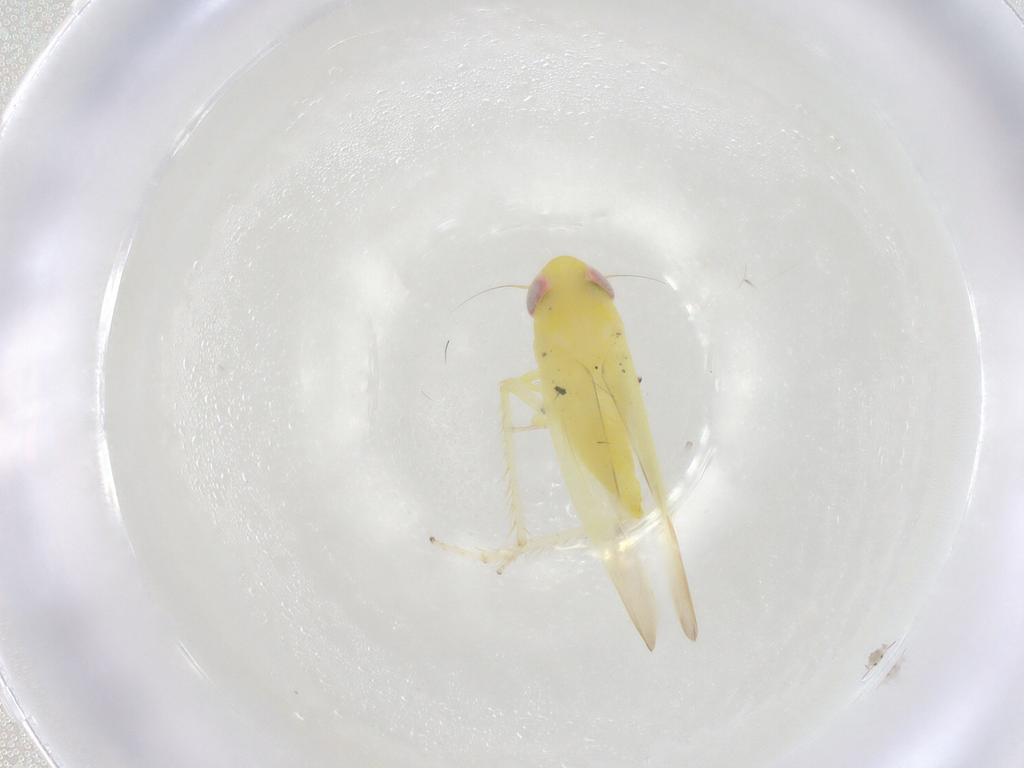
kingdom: Animalia
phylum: Arthropoda
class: Insecta
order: Hemiptera
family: Cicadellidae
